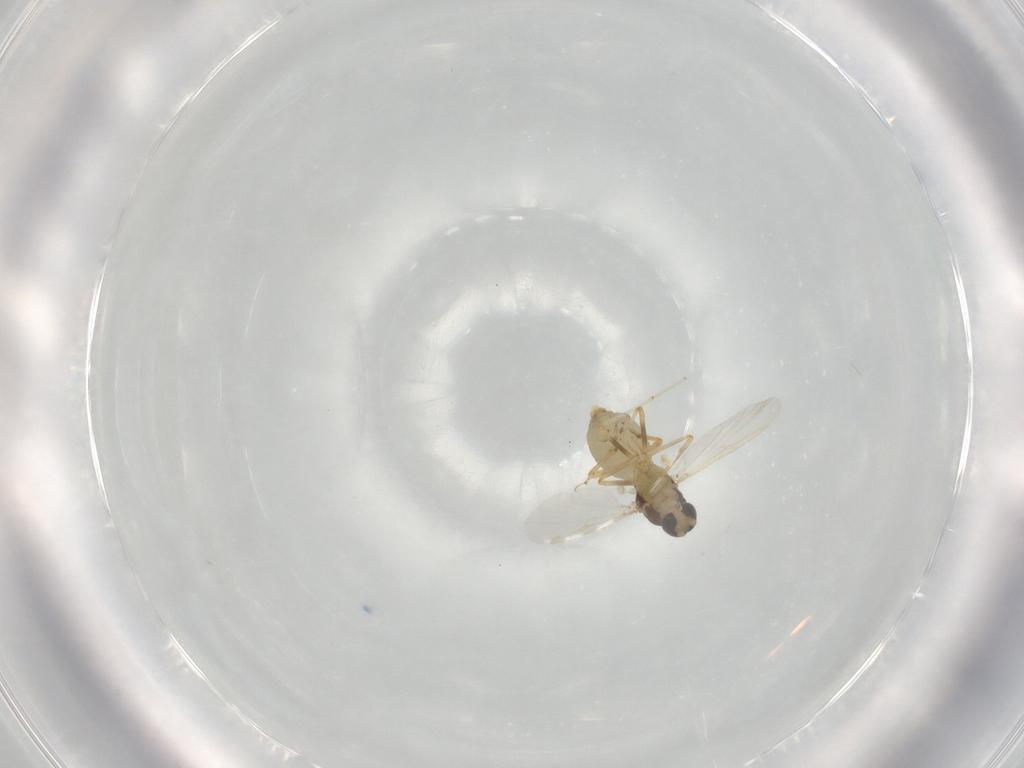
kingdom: Animalia
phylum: Arthropoda
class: Insecta
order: Diptera
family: Ceratopogonidae
